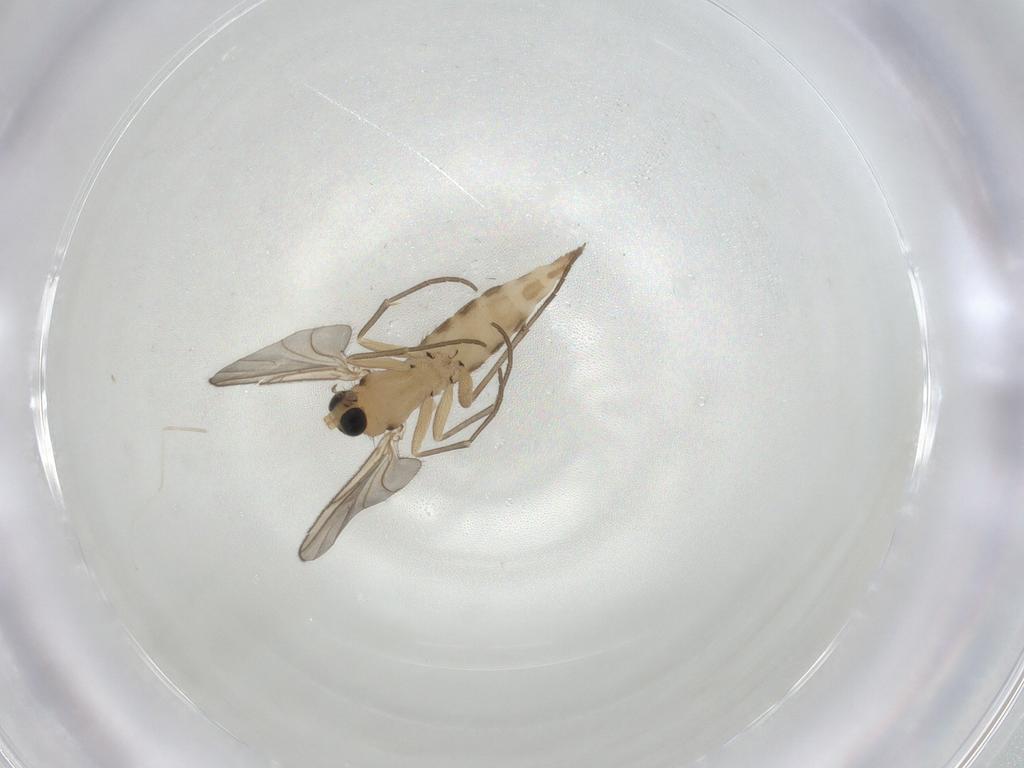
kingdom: Animalia
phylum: Arthropoda
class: Insecta
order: Diptera
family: Sciaridae
